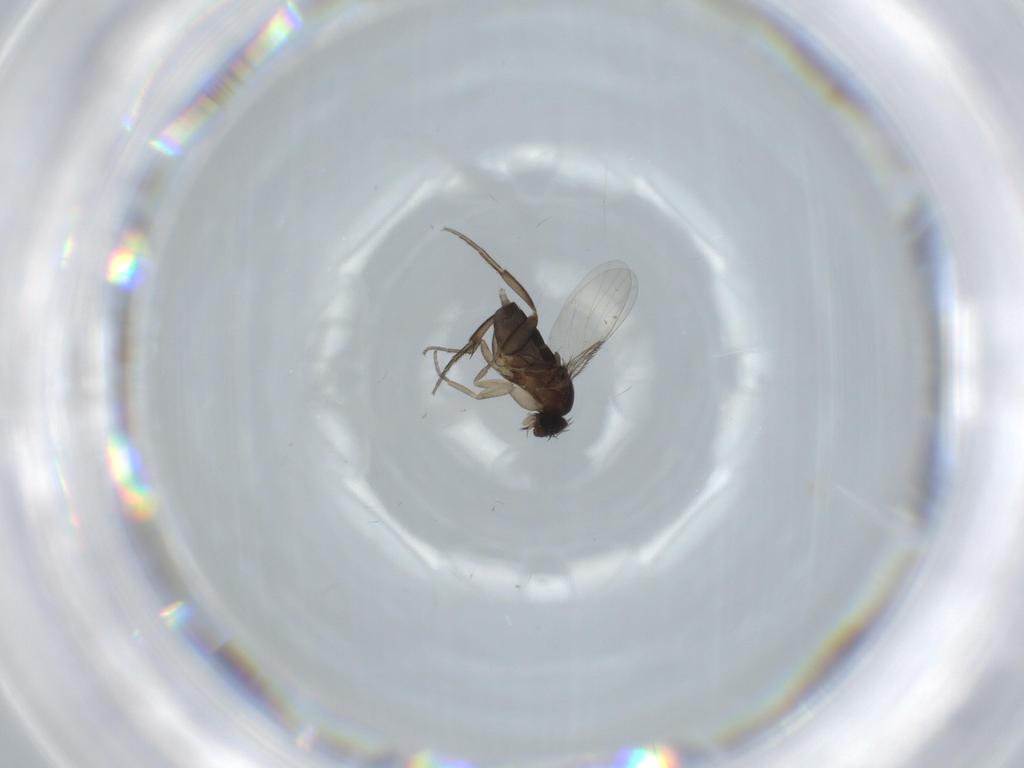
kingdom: Animalia
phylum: Arthropoda
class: Insecta
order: Diptera
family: Phoridae
